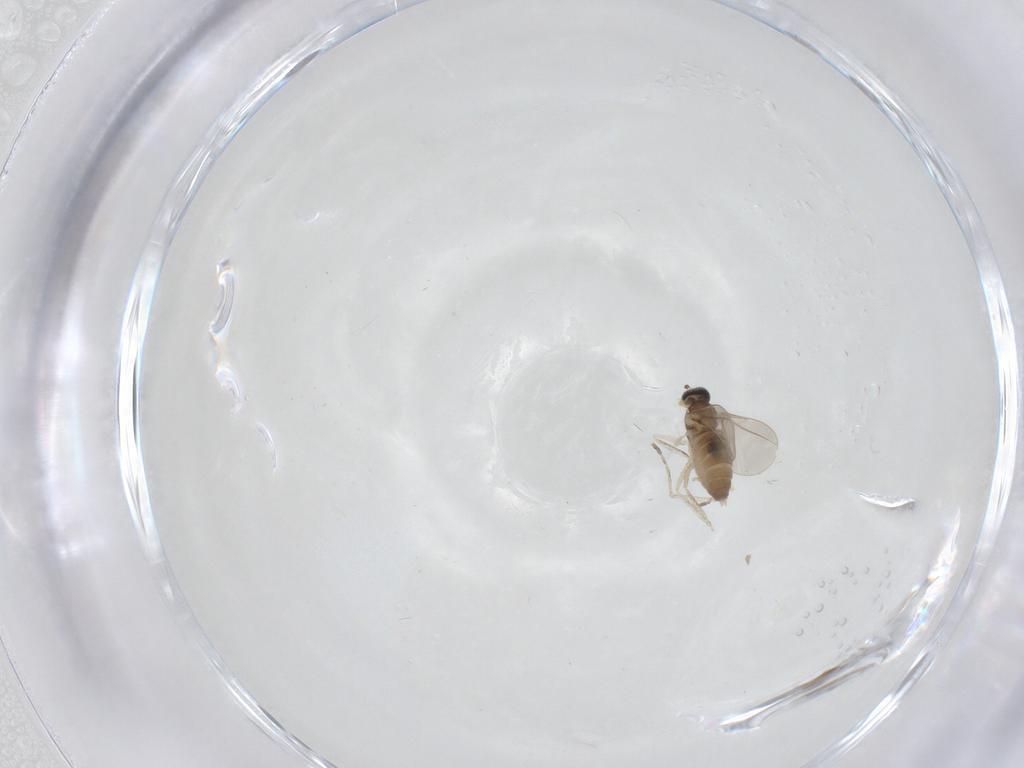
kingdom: Animalia
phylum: Arthropoda
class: Insecta
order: Diptera
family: Cecidomyiidae
